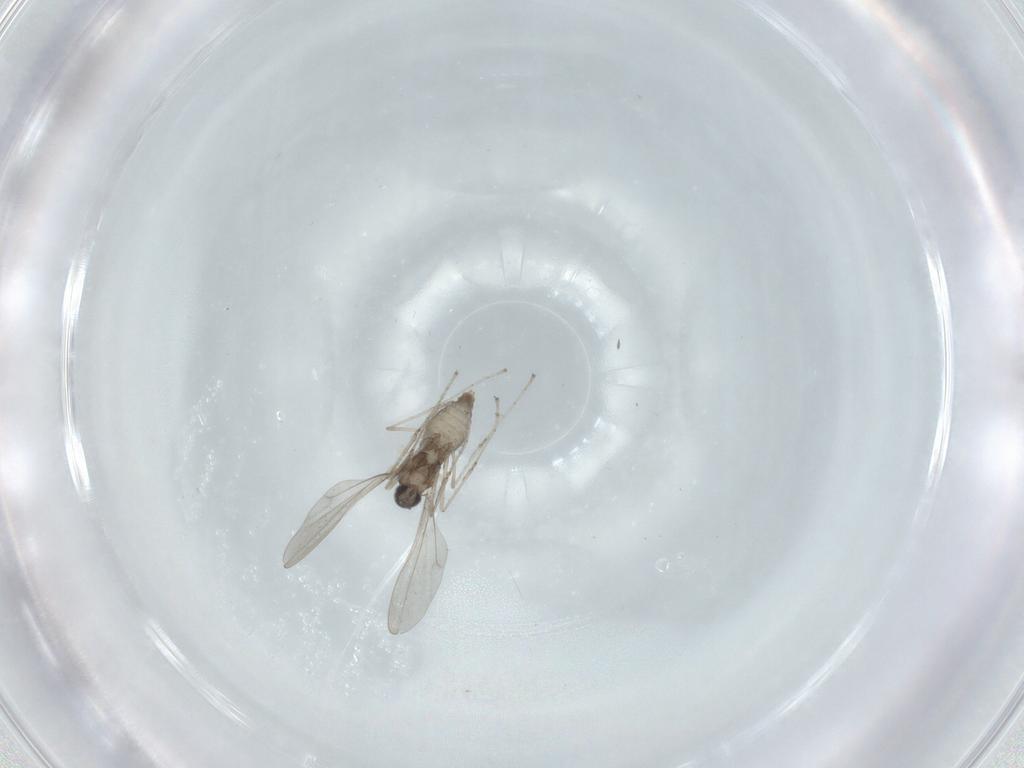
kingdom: Animalia
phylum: Arthropoda
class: Insecta
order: Diptera
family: Cecidomyiidae
